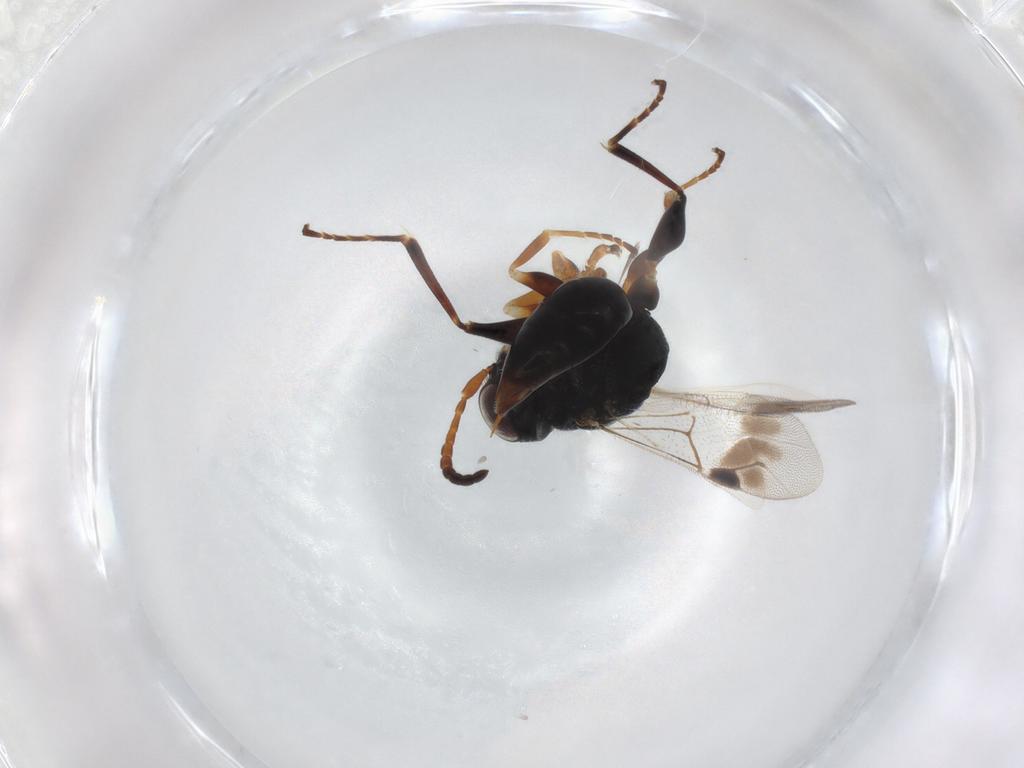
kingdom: Animalia
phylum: Arthropoda
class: Insecta
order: Hymenoptera
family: Dryinidae
